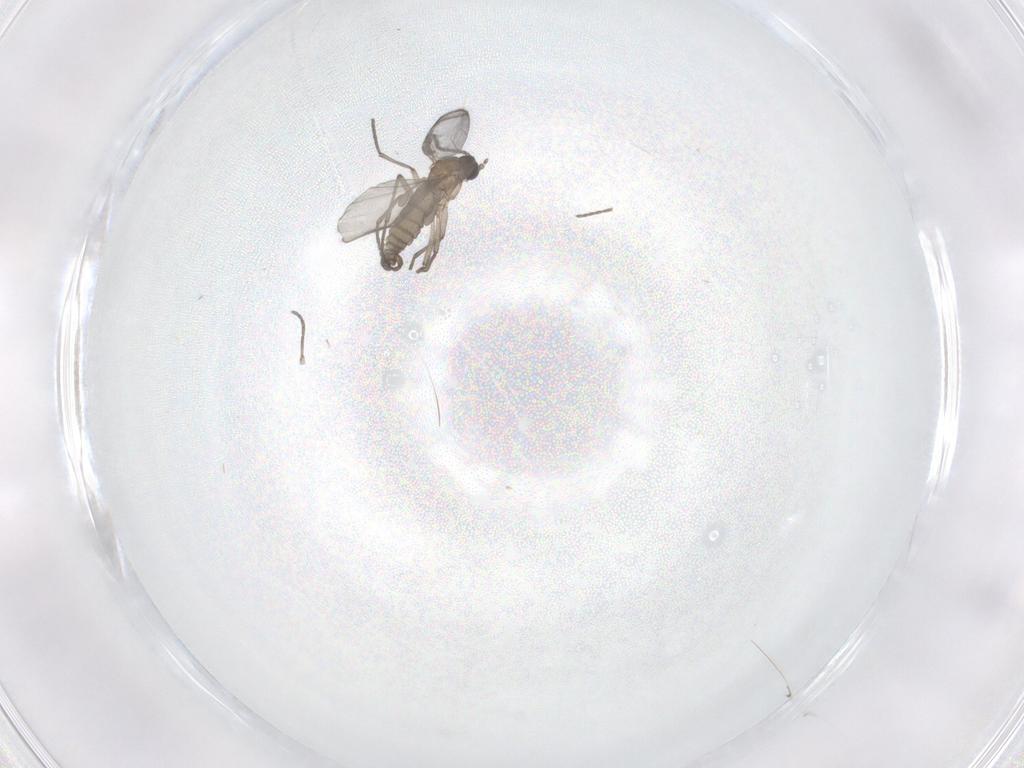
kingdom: Animalia
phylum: Arthropoda
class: Insecta
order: Diptera
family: Sciaridae
